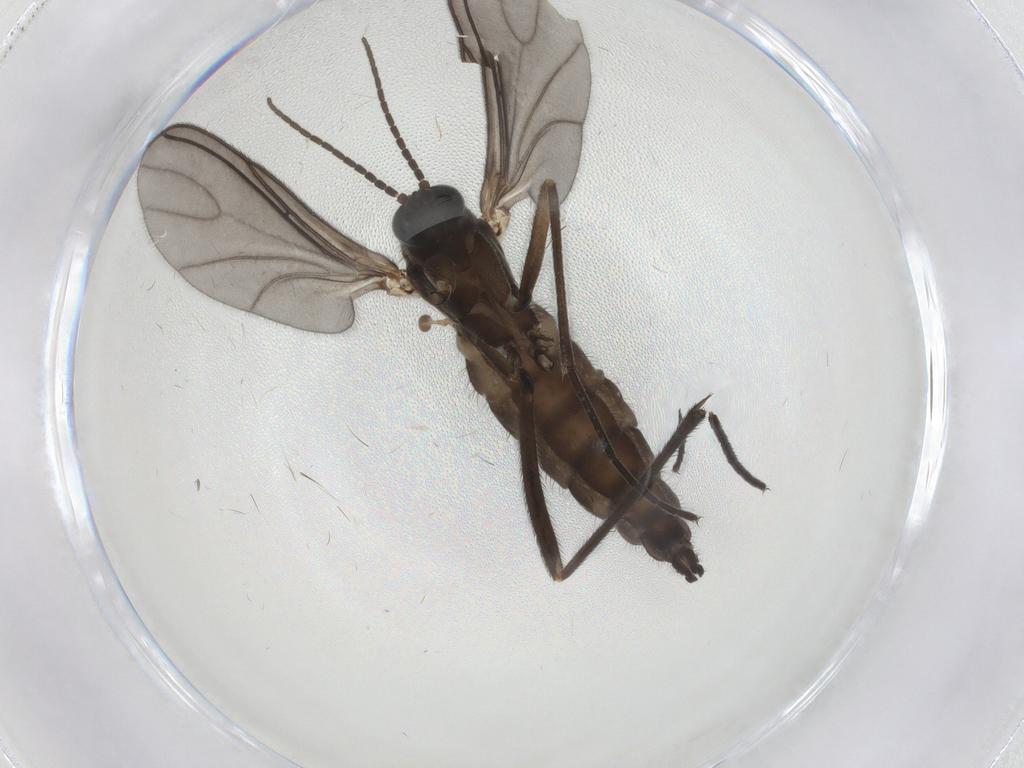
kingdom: Animalia
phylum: Arthropoda
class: Insecta
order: Diptera
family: Sciaridae
